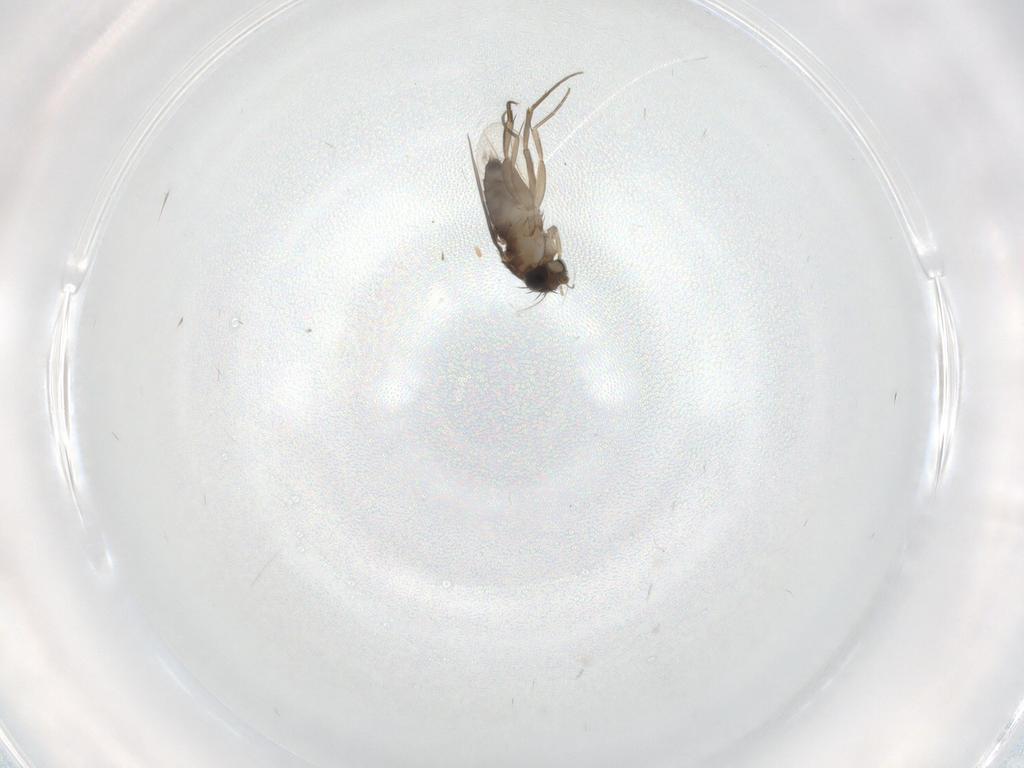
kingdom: Animalia
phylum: Arthropoda
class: Insecta
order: Diptera
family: Phoridae
